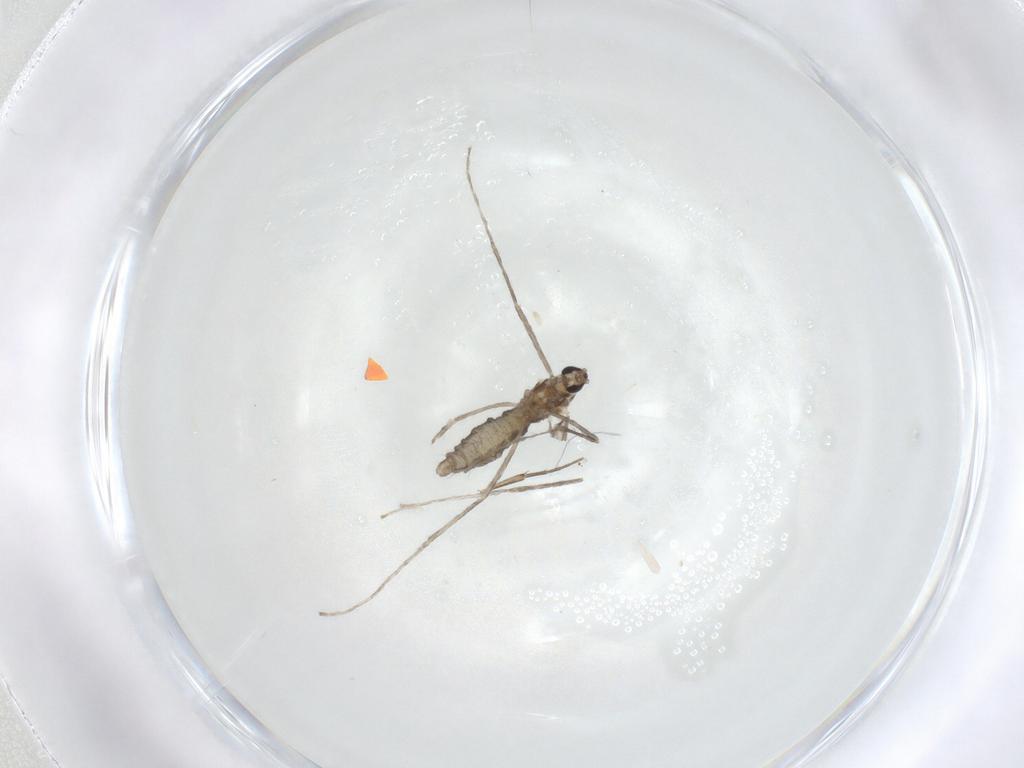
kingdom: Animalia
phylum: Arthropoda
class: Insecta
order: Diptera
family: Cecidomyiidae
